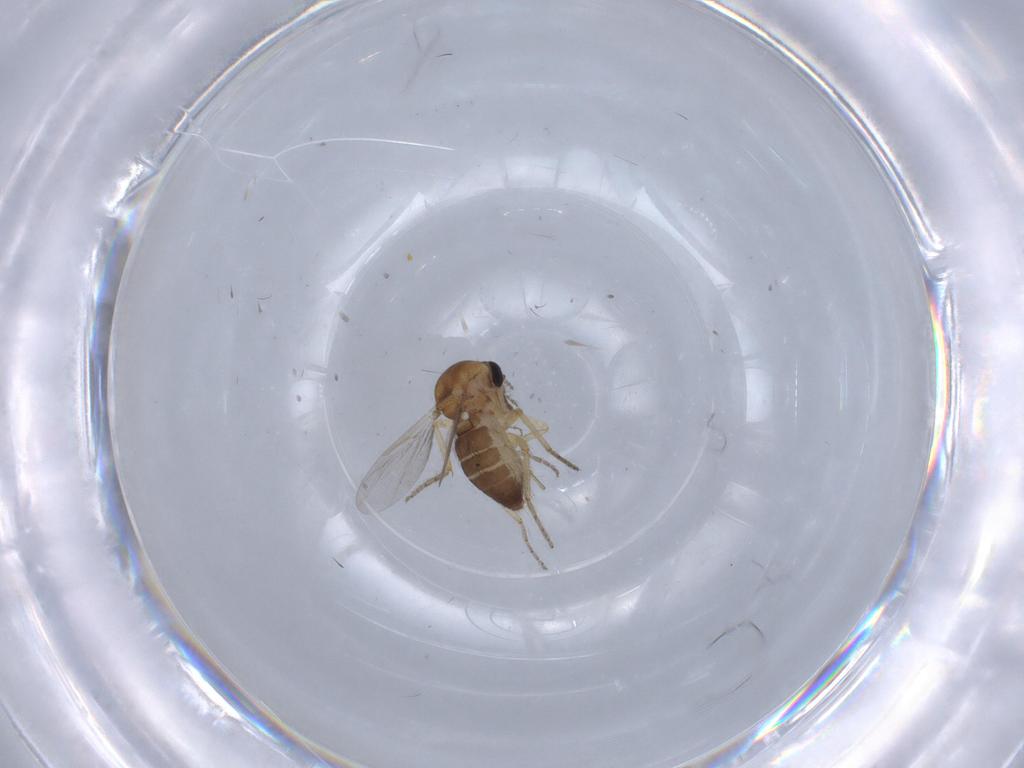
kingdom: Animalia
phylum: Arthropoda
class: Insecta
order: Diptera
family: Ceratopogonidae
